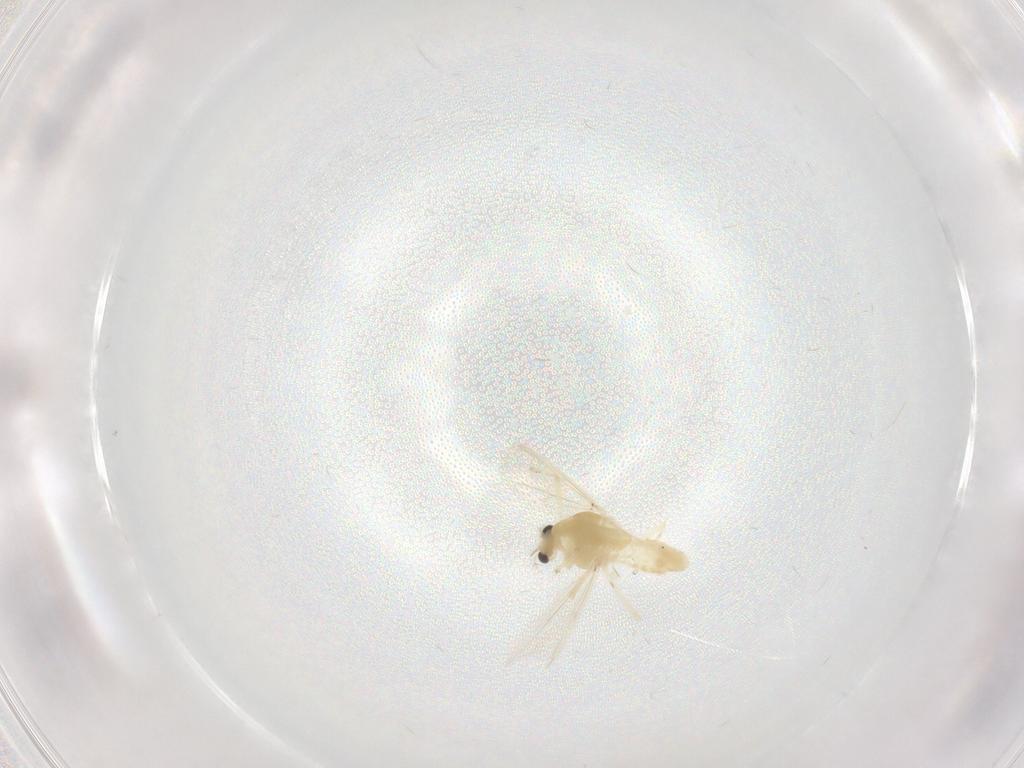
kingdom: Animalia
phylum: Arthropoda
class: Insecta
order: Diptera
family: Chironomidae
